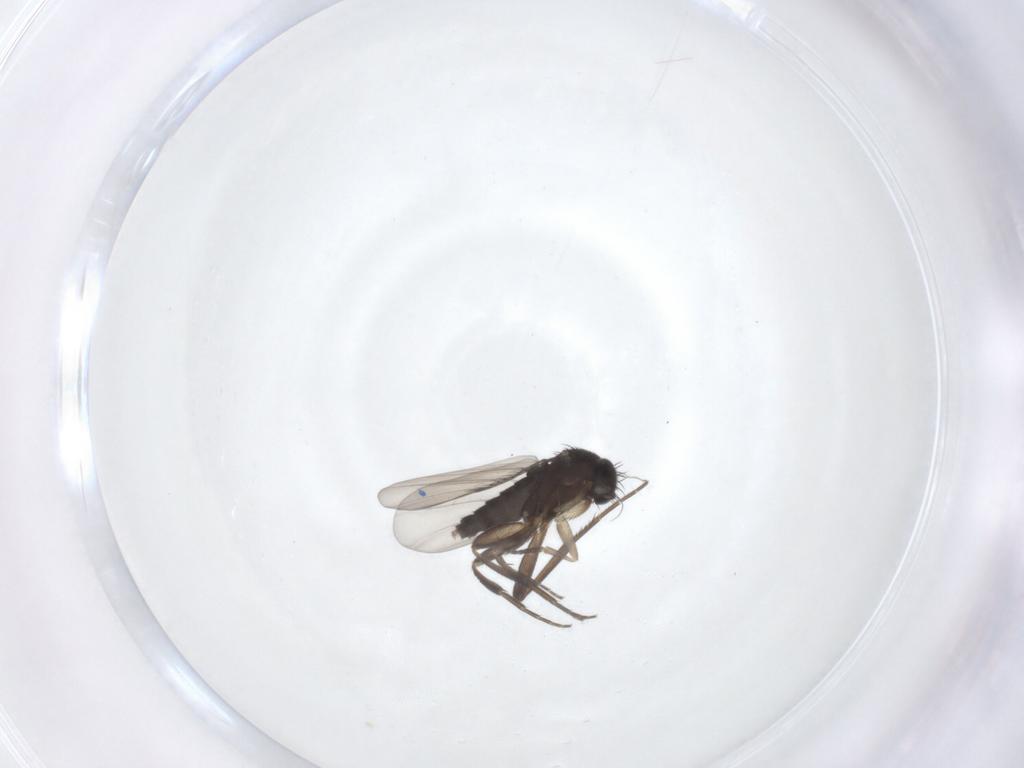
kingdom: Animalia
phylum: Arthropoda
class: Insecta
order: Diptera
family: Phoridae
